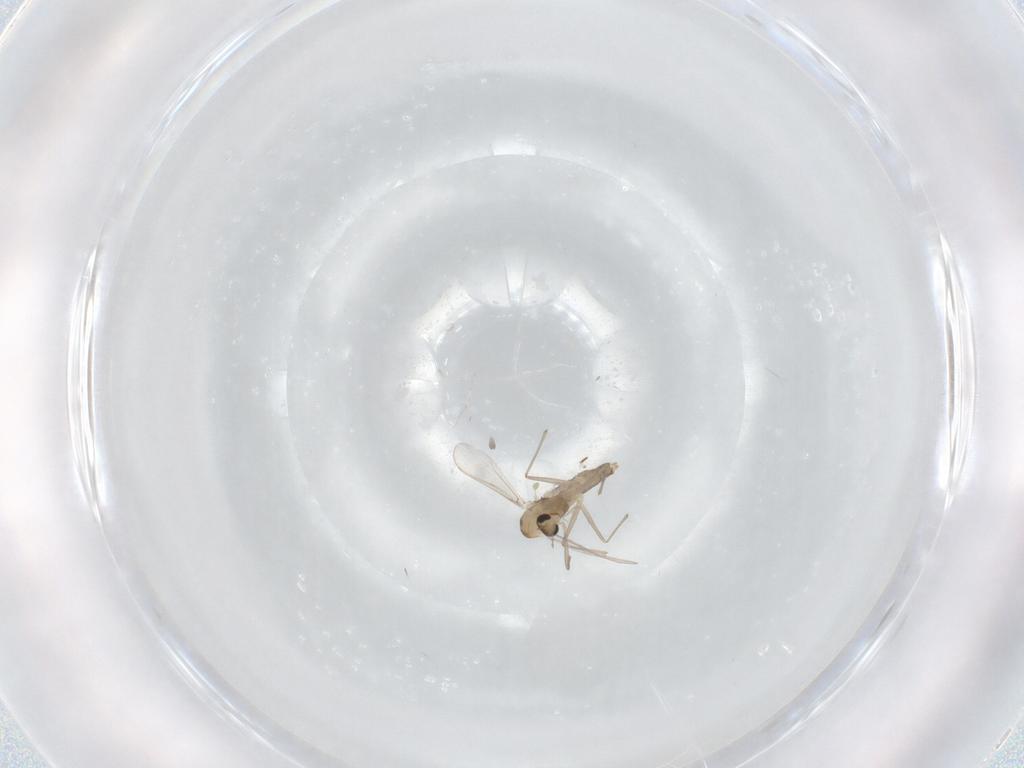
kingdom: Animalia
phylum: Arthropoda
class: Insecta
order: Diptera
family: Chironomidae
